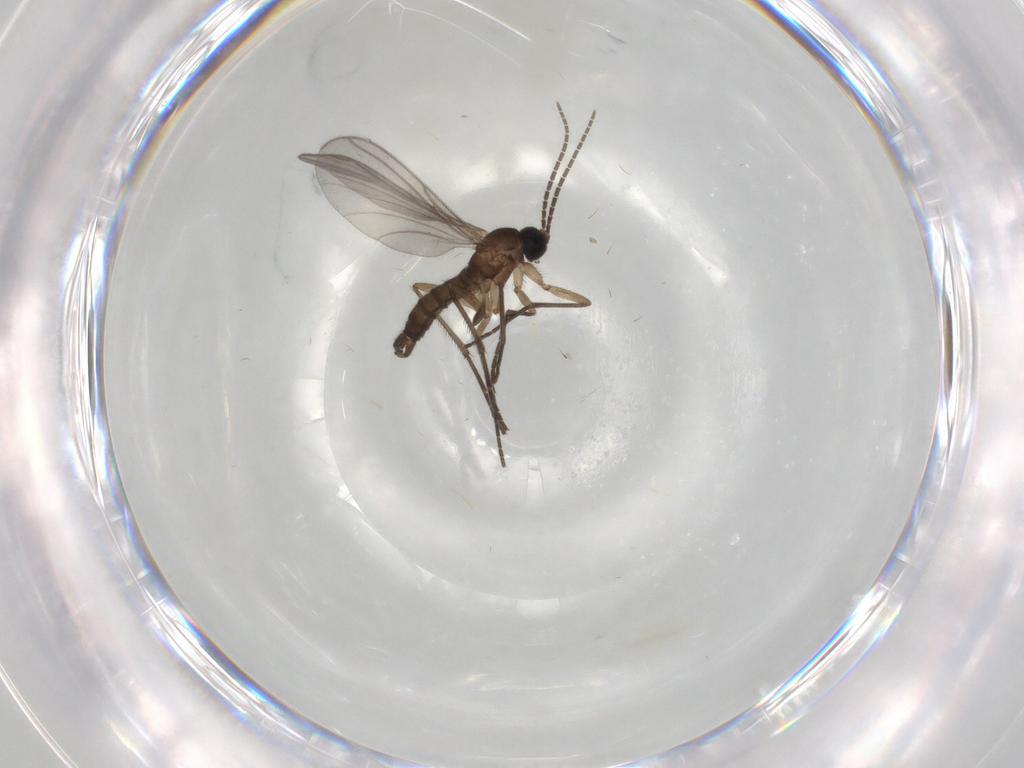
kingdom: Animalia
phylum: Arthropoda
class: Insecta
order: Diptera
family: Sciaridae
